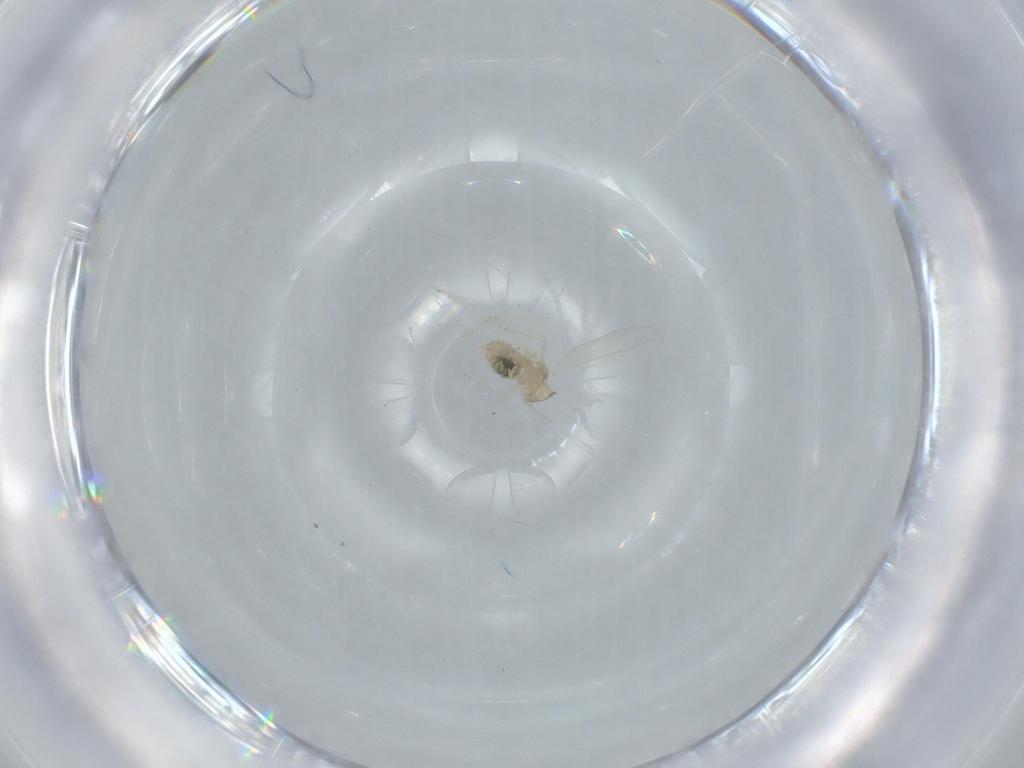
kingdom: Animalia
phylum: Arthropoda
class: Insecta
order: Diptera
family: Cecidomyiidae
